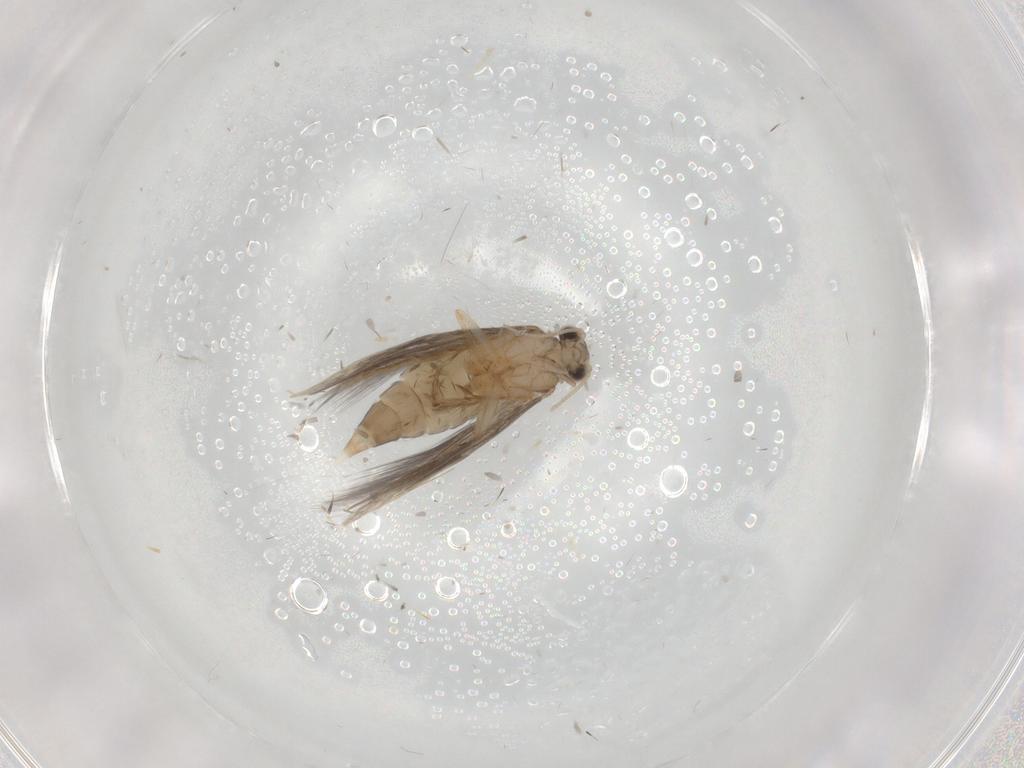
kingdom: Animalia
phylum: Arthropoda
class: Insecta
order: Trichoptera
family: Hydroptilidae
